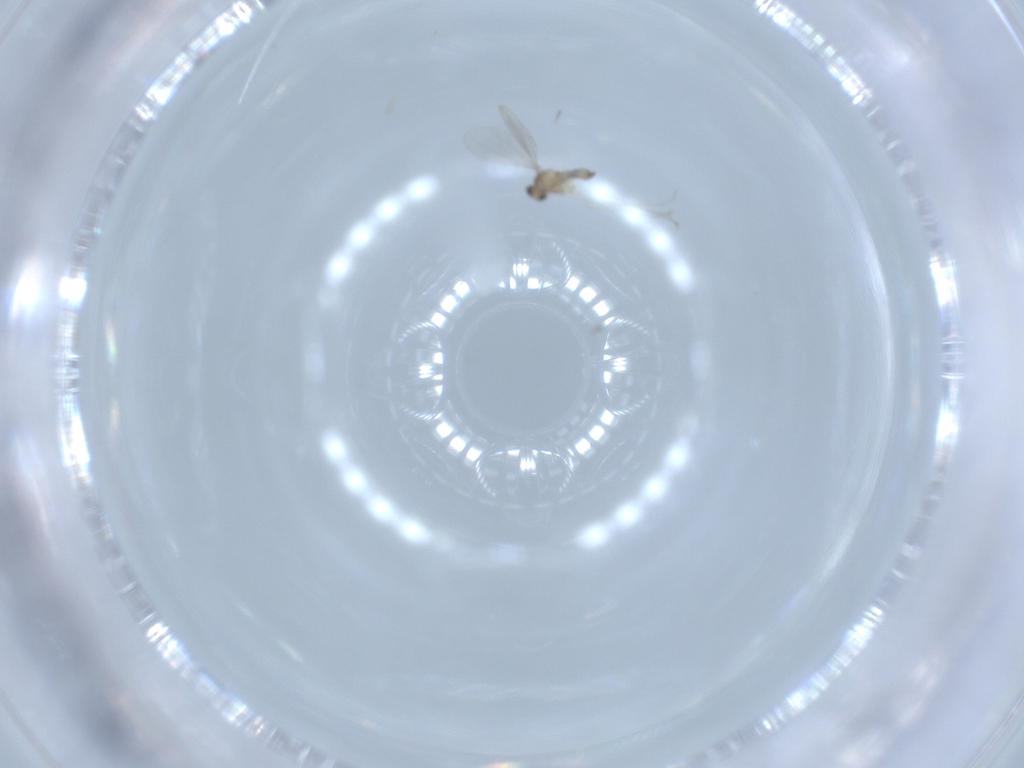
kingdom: Animalia
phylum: Arthropoda
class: Insecta
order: Diptera
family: Cecidomyiidae
